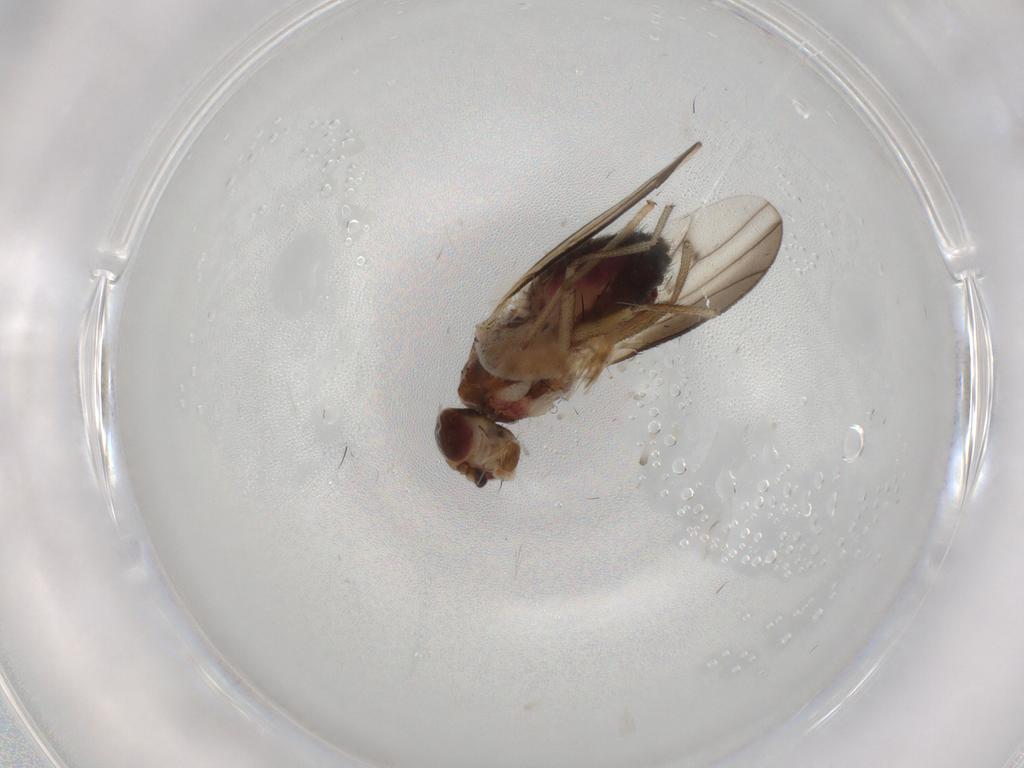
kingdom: Animalia
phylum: Arthropoda
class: Insecta
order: Diptera
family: Heleomyzidae
